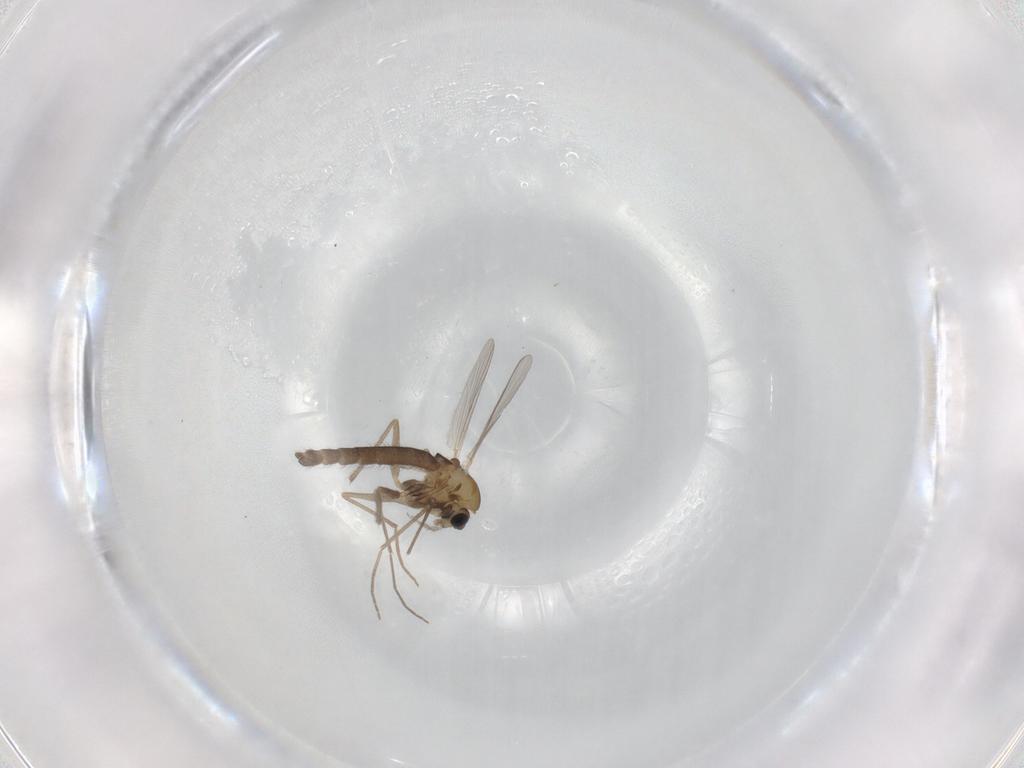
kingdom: Animalia
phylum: Arthropoda
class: Insecta
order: Diptera
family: Chironomidae
